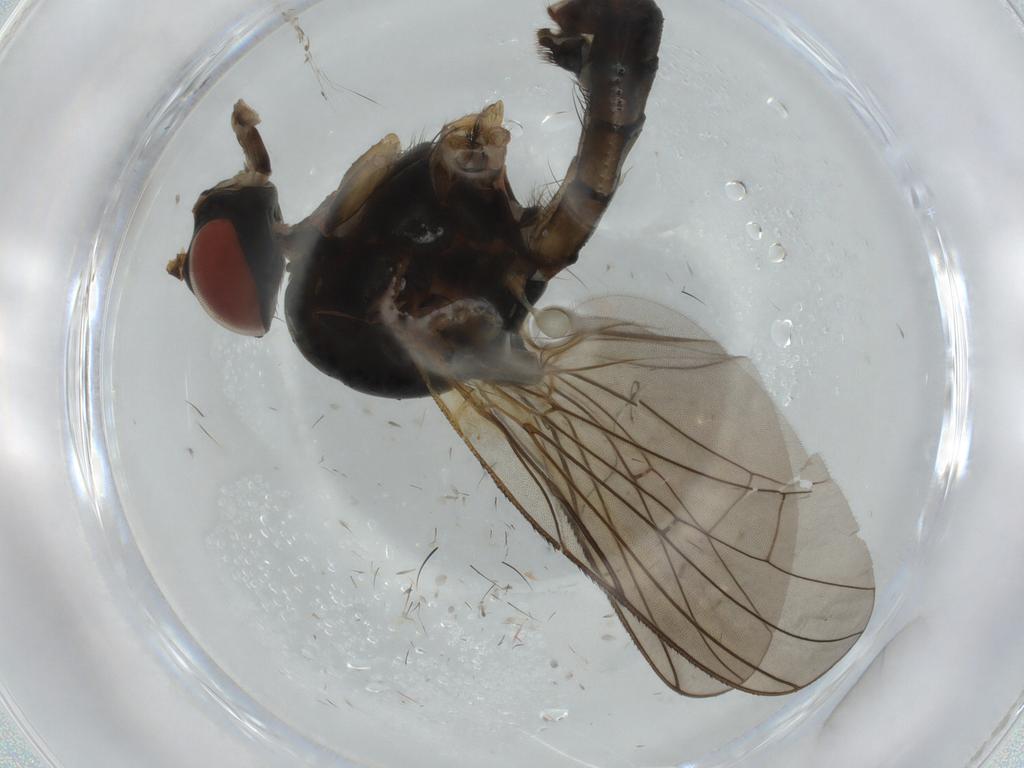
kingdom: Animalia
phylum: Arthropoda
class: Insecta
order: Diptera
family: Anthomyiidae
